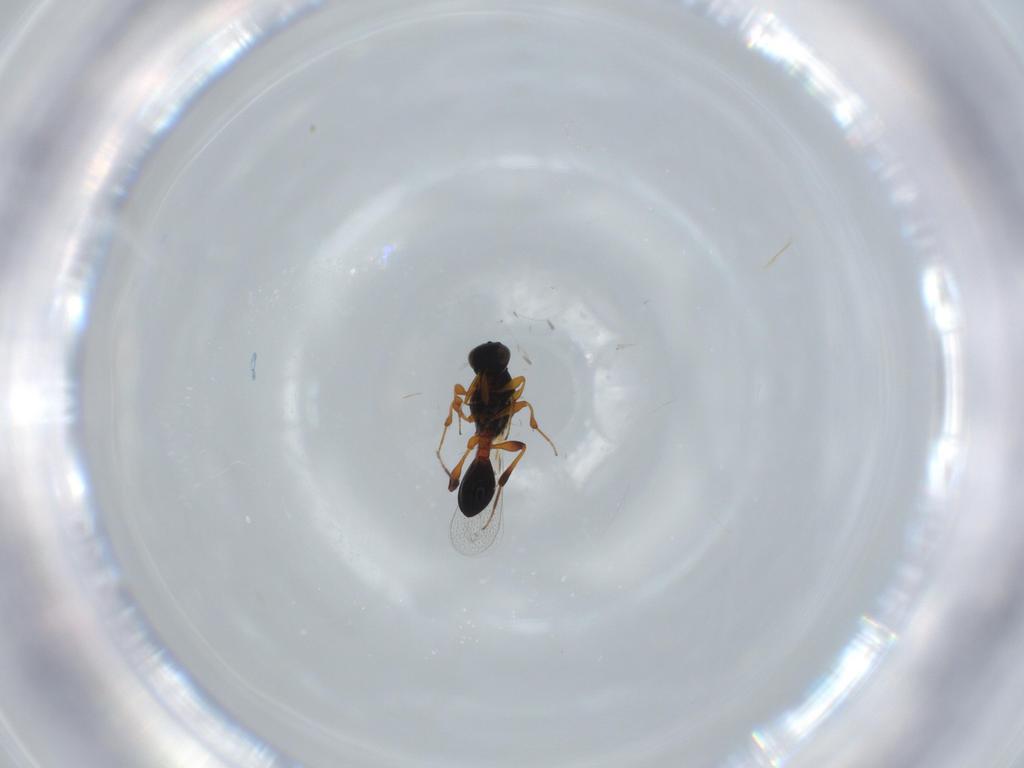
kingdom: Animalia
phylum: Arthropoda
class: Insecta
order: Hymenoptera
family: Platygastridae
